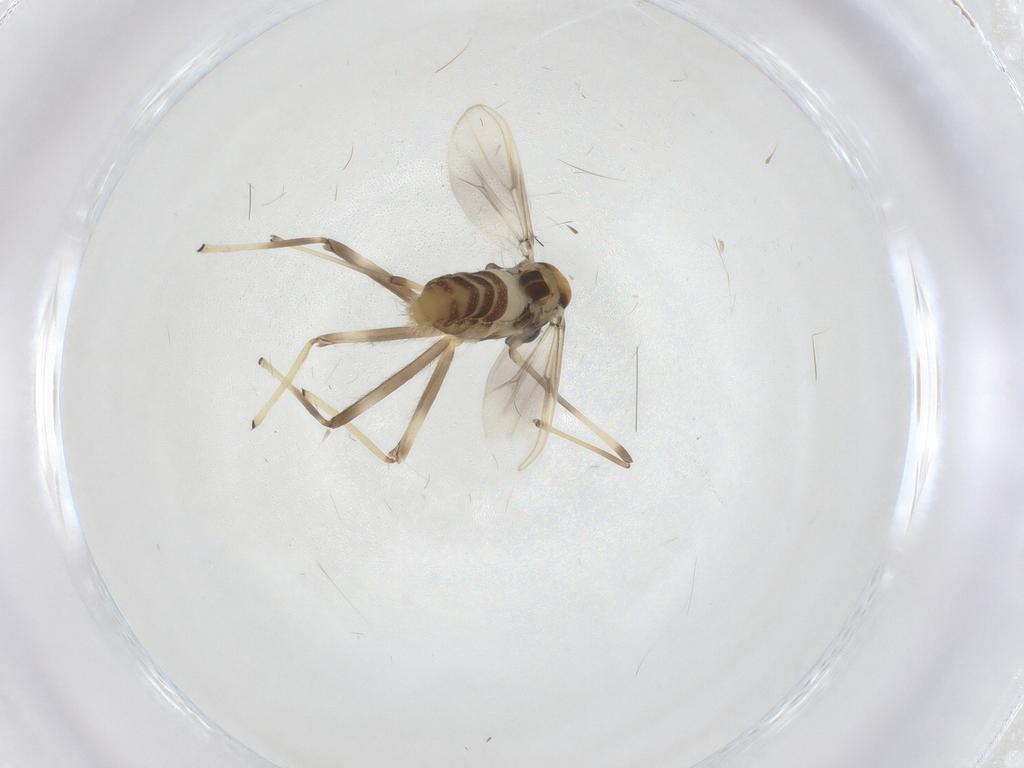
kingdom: Animalia
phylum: Arthropoda
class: Insecta
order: Diptera
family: Chironomidae
